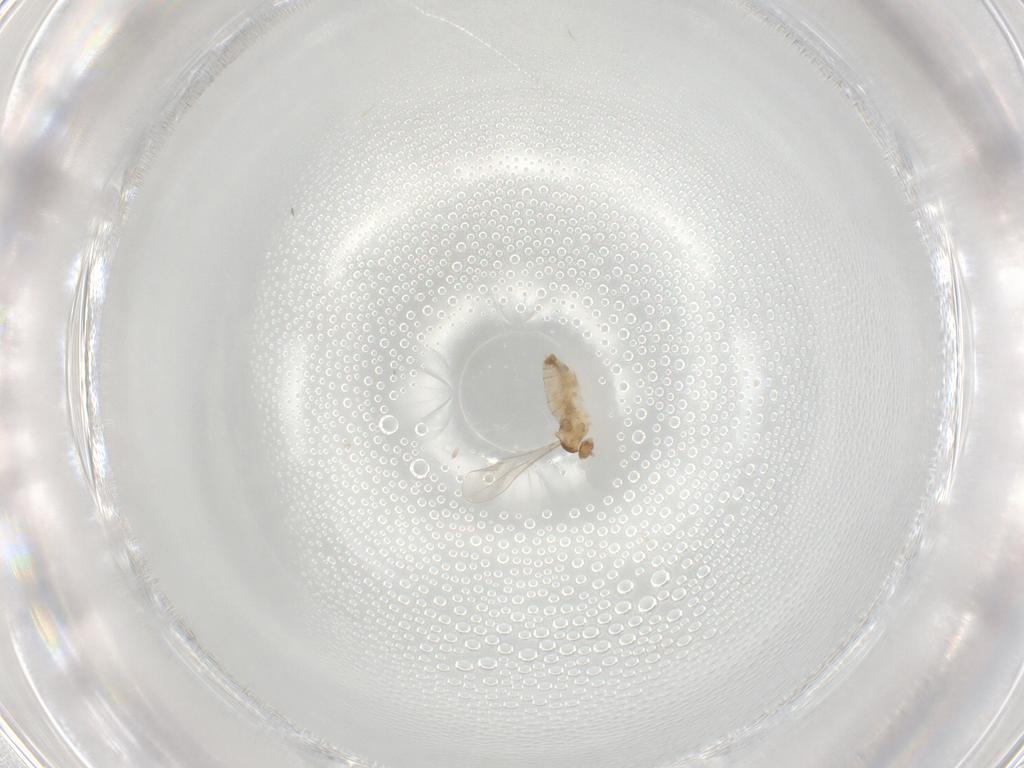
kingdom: Animalia
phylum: Arthropoda
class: Insecta
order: Diptera
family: Cecidomyiidae
